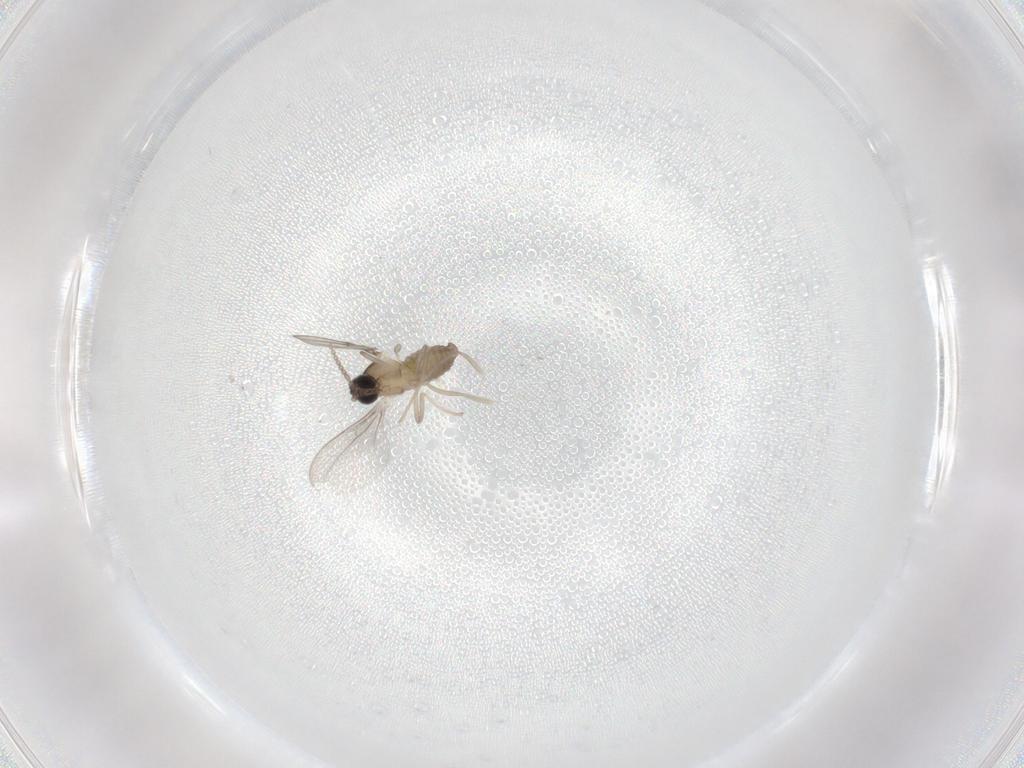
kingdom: Animalia
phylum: Arthropoda
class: Insecta
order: Diptera
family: Cecidomyiidae
